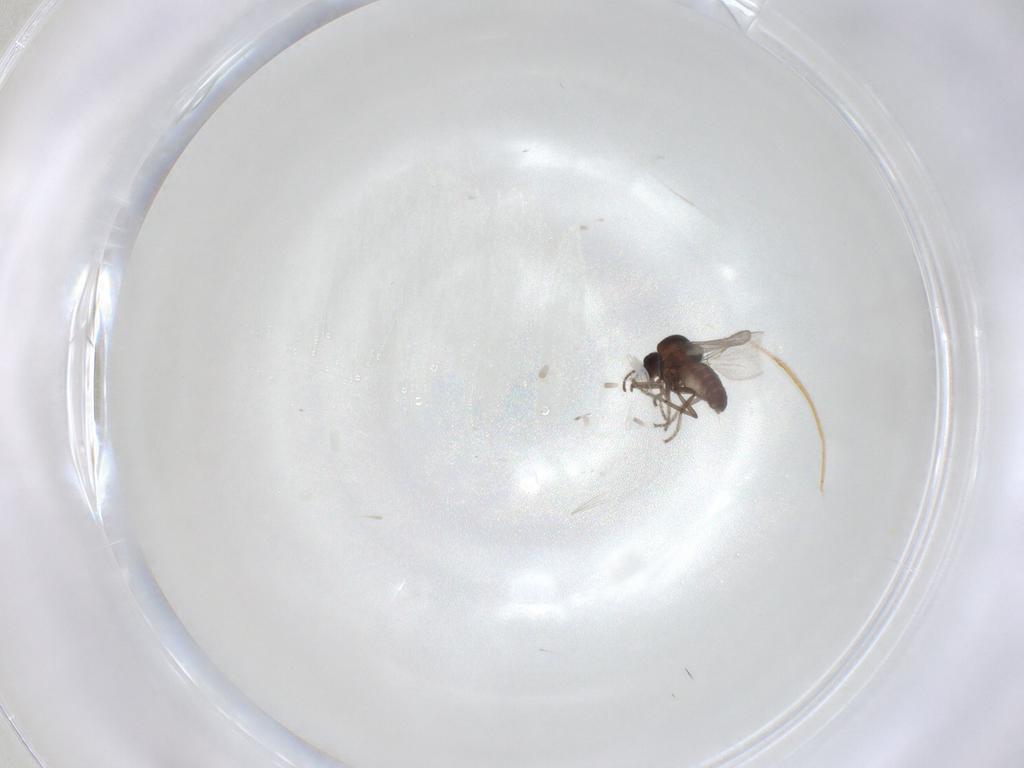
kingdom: Animalia
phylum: Arthropoda
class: Insecta
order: Diptera
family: Ceratopogonidae
